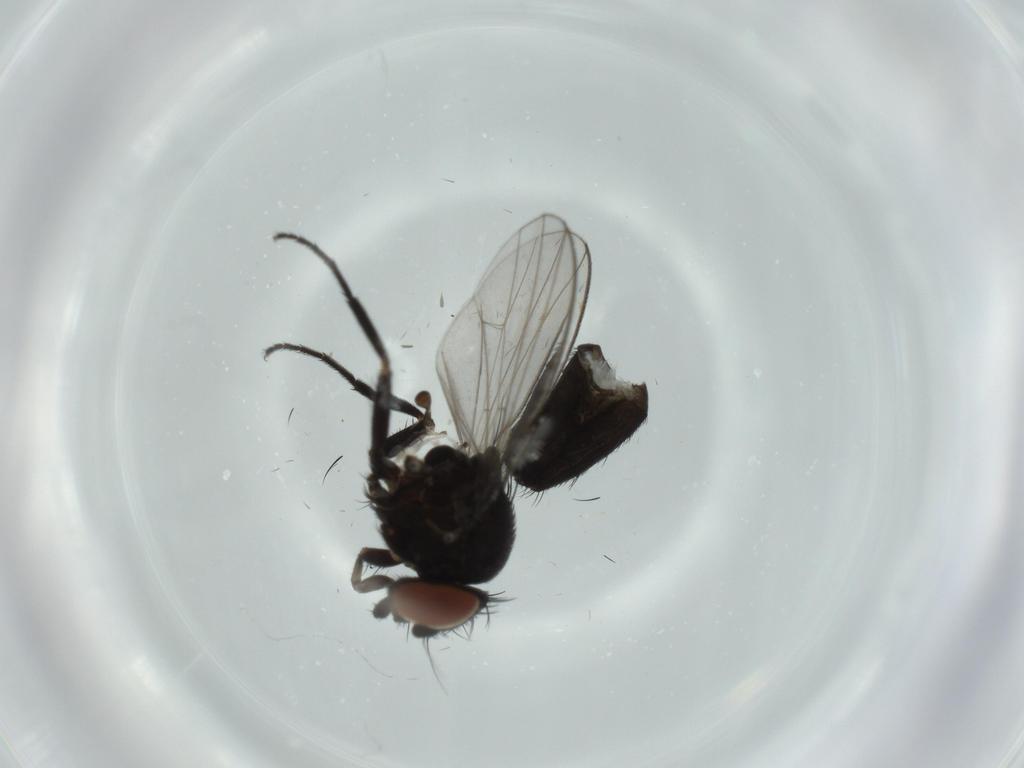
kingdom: Animalia
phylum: Arthropoda
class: Insecta
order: Diptera
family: Milichiidae
